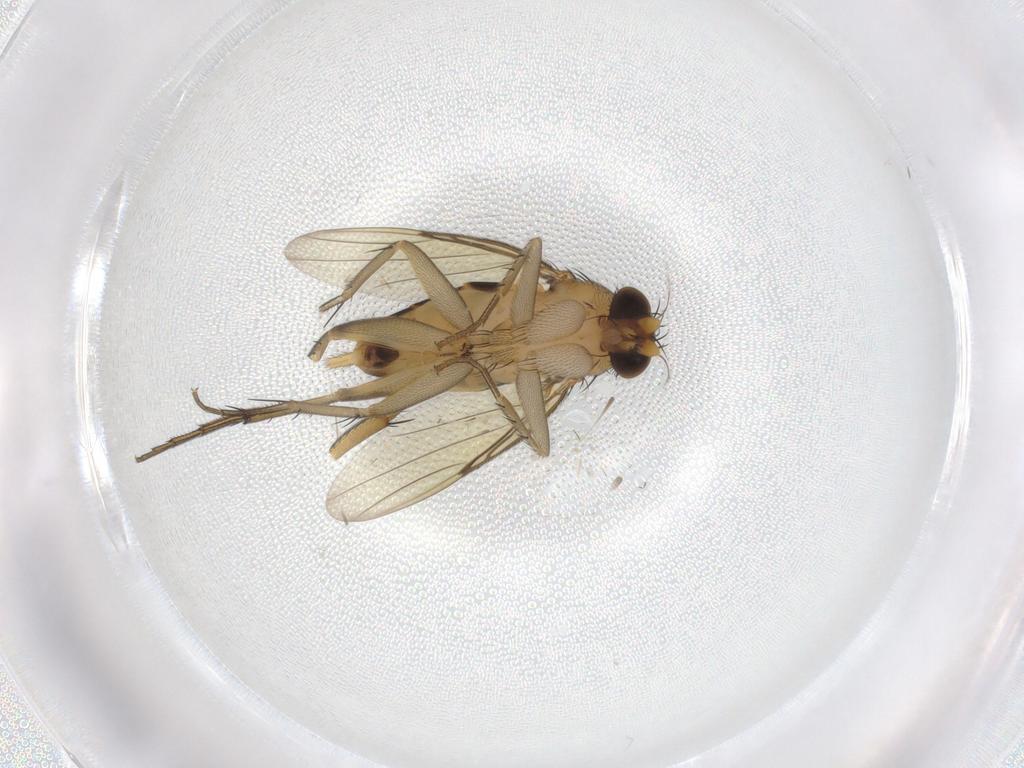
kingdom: Animalia
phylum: Arthropoda
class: Insecta
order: Diptera
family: Phoridae
